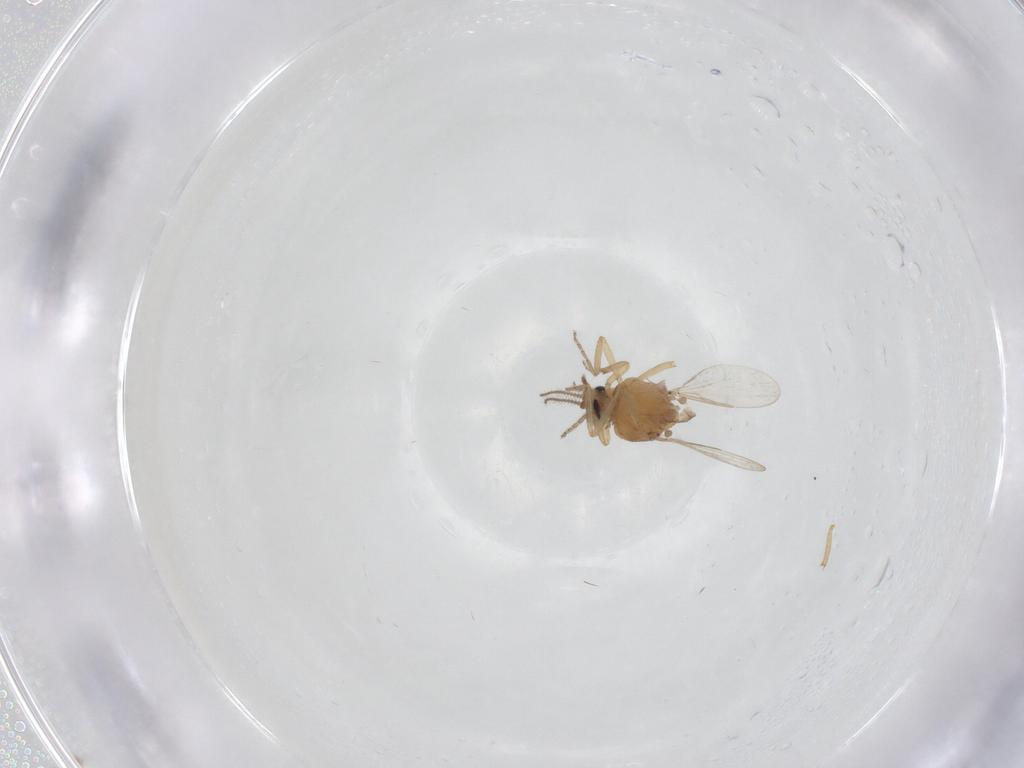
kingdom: Animalia
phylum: Arthropoda
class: Insecta
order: Diptera
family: Ceratopogonidae
